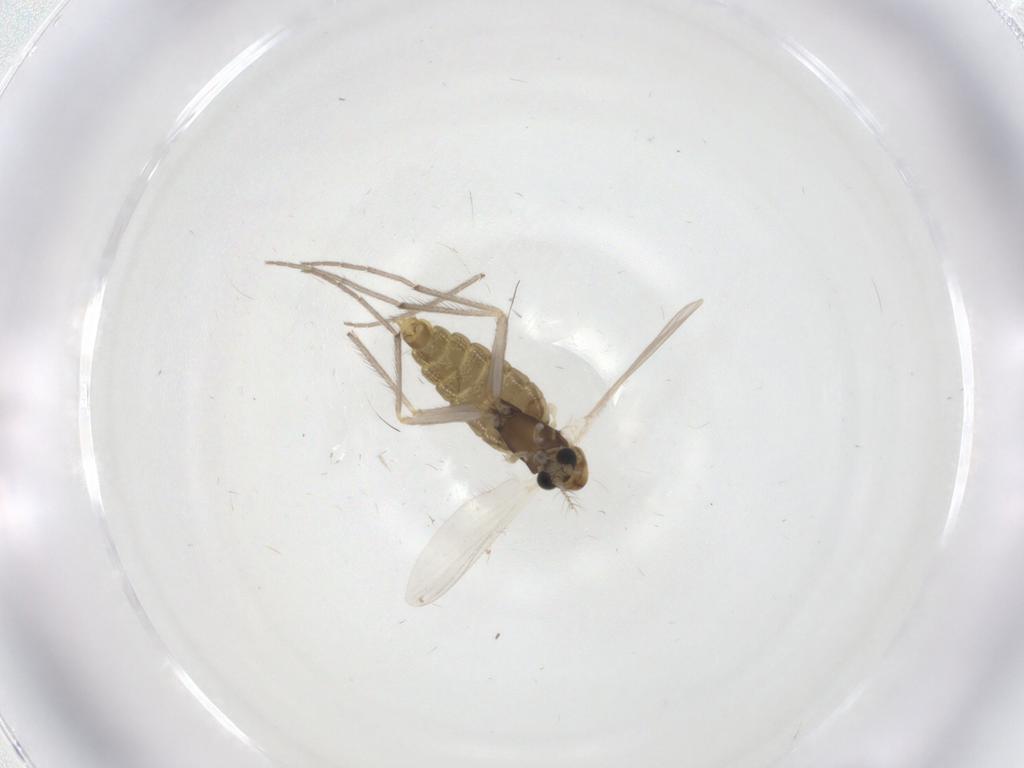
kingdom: Animalia
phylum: Arthropoda
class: Insecta
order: Diptera
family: Chironomidae
